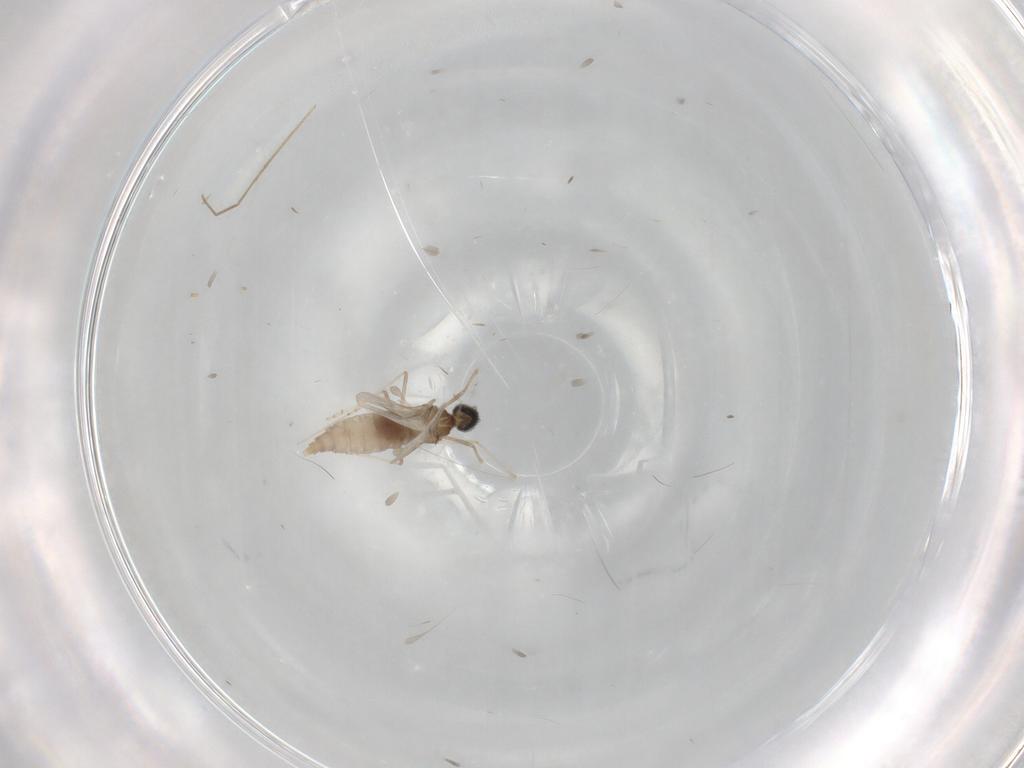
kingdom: Animalia
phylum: Arthropoda
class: Insecta
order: Diptera
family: Chironomidae
